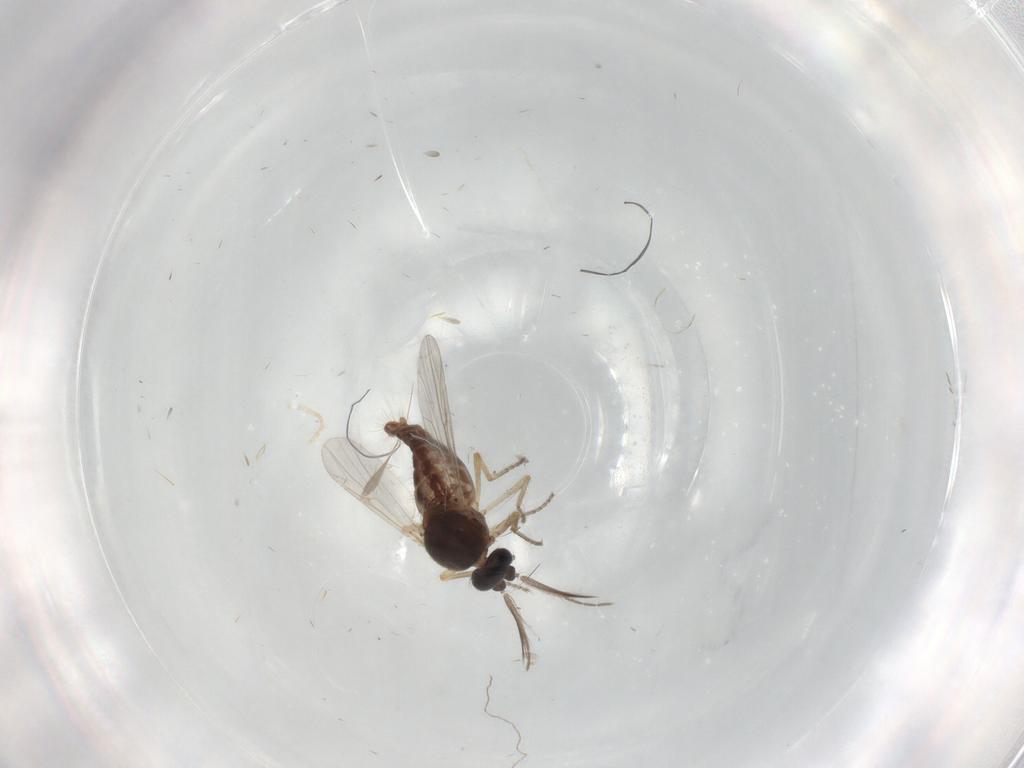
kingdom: Animalia
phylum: Arthropoda
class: Insecta
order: Diptera
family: Ceratopogonidae
